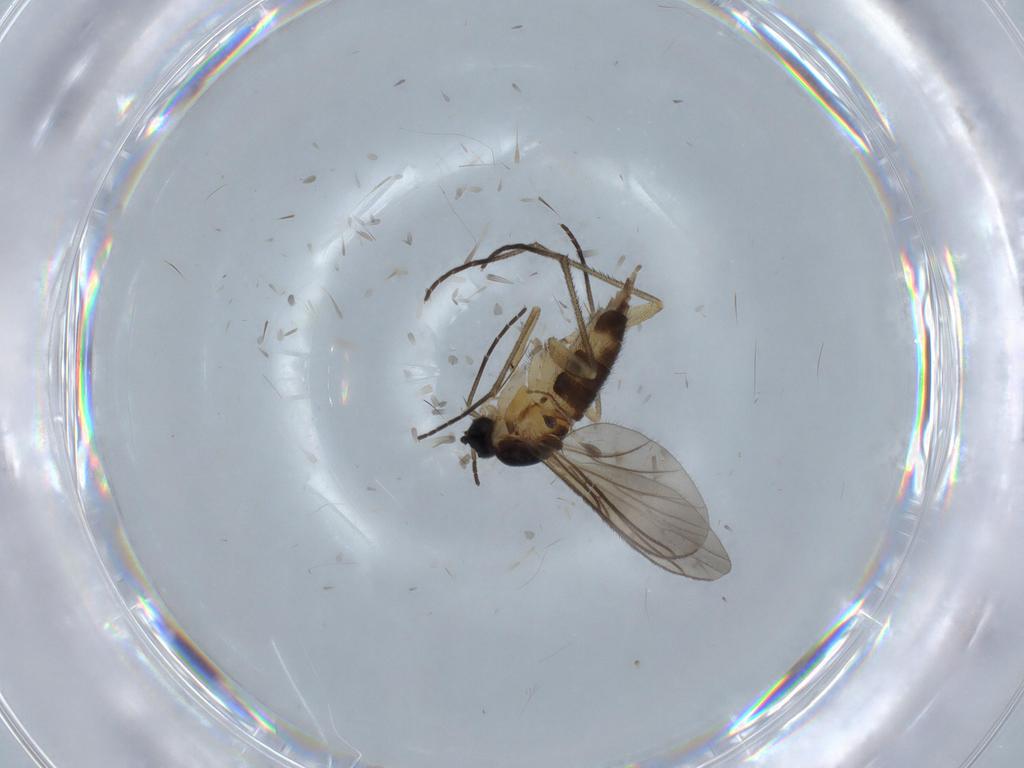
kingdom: Animalia
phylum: Arthropoda
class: Insecta
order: Diptera
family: Sciaridae
